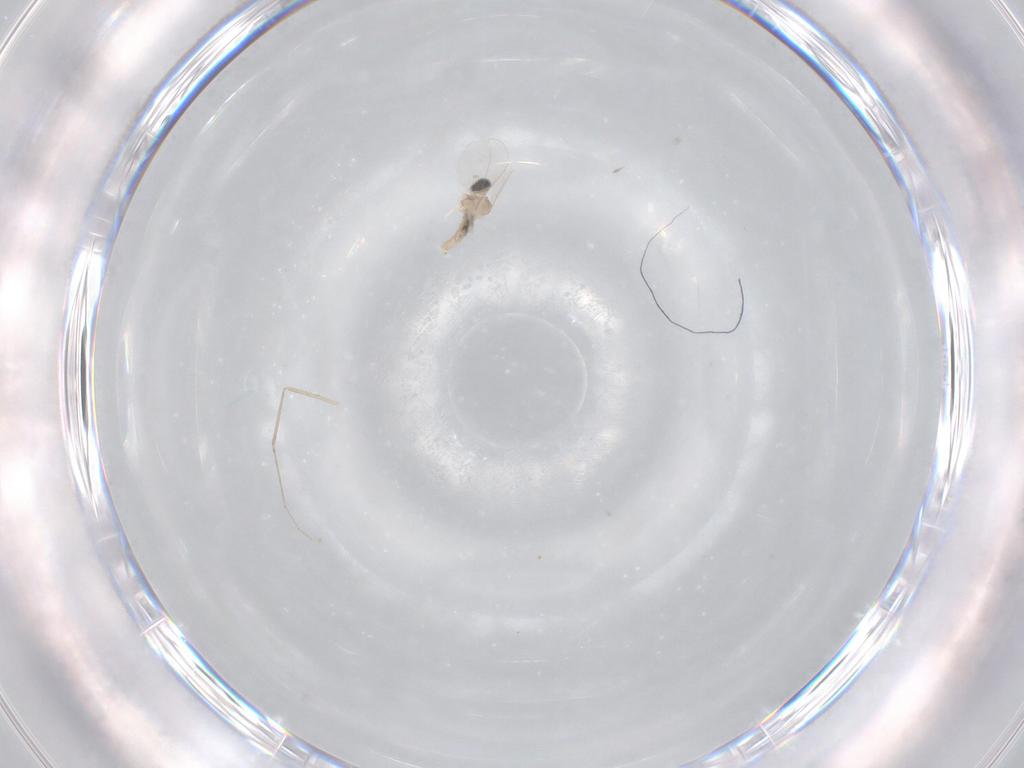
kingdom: Animalia
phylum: Arthropoda
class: Insecta
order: Diptera
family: Cecidomyiidae
